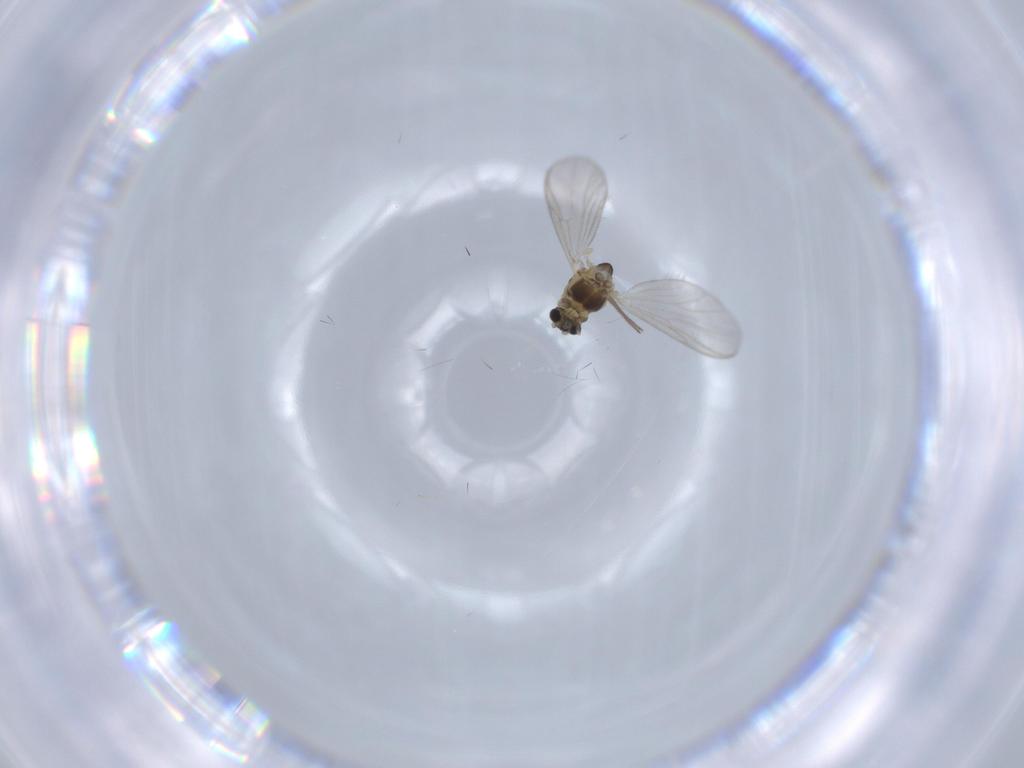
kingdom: Animalia
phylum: Arthropoda
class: Insecta
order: Diptera
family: Chironomidae
